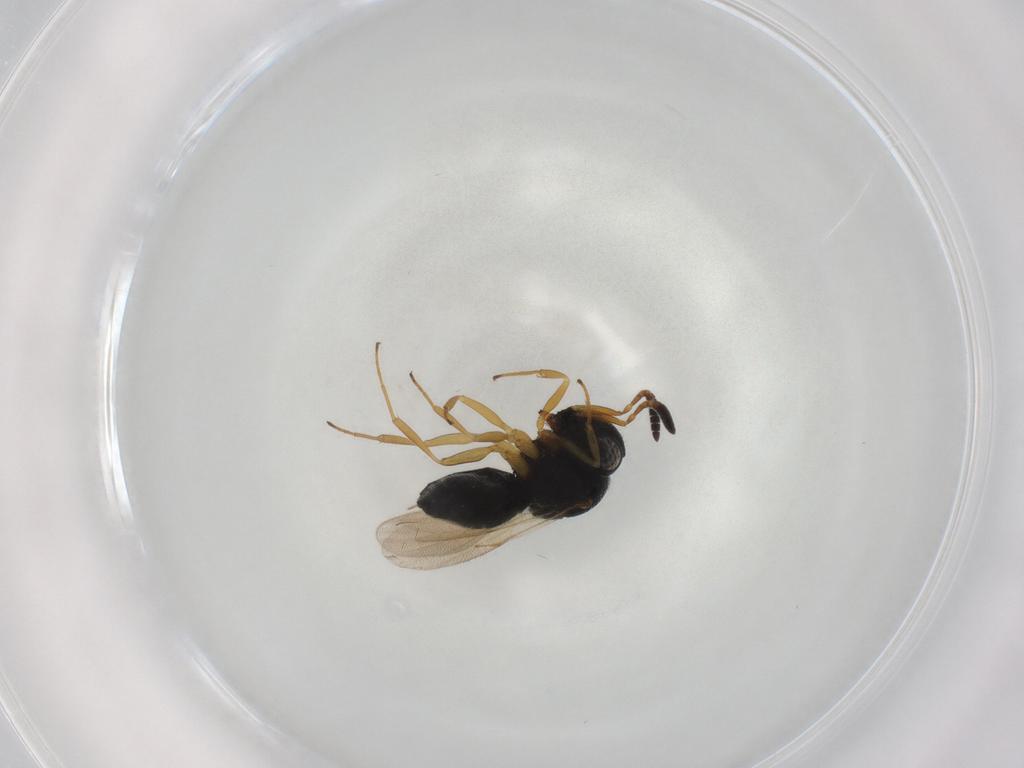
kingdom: Animalia
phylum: Arthropoda
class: Insecta
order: Hymenoptera
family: Scelionidae
